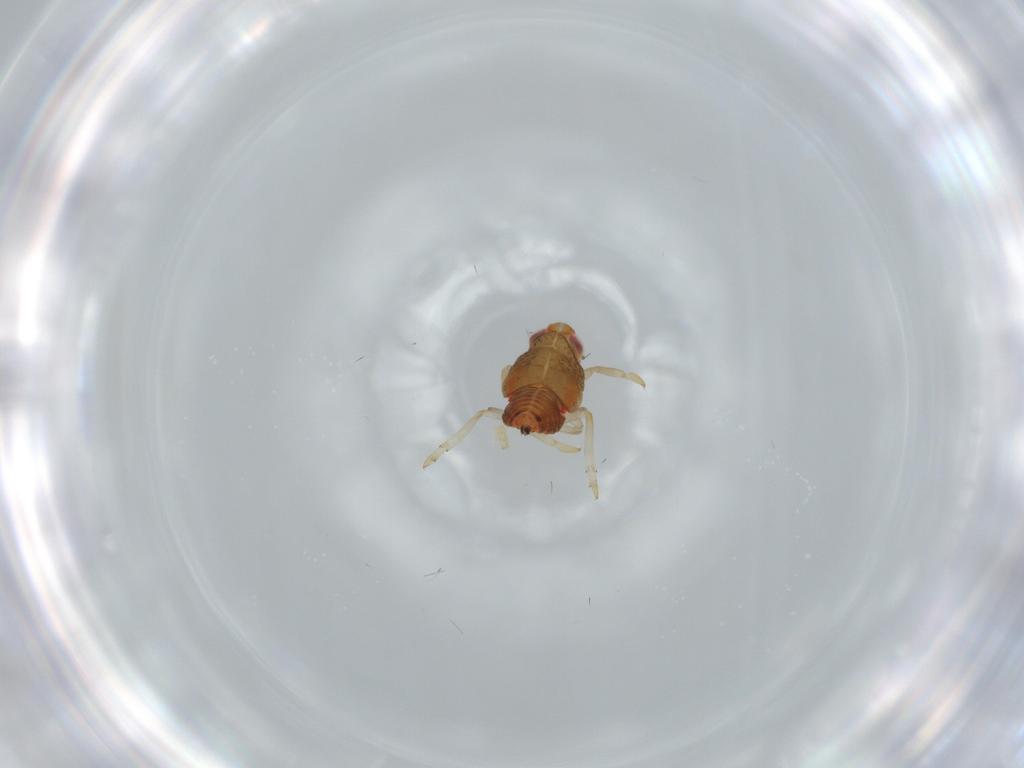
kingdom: Animalia
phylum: Arthropoda
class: Insecta
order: Hemiptera
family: Issidae
